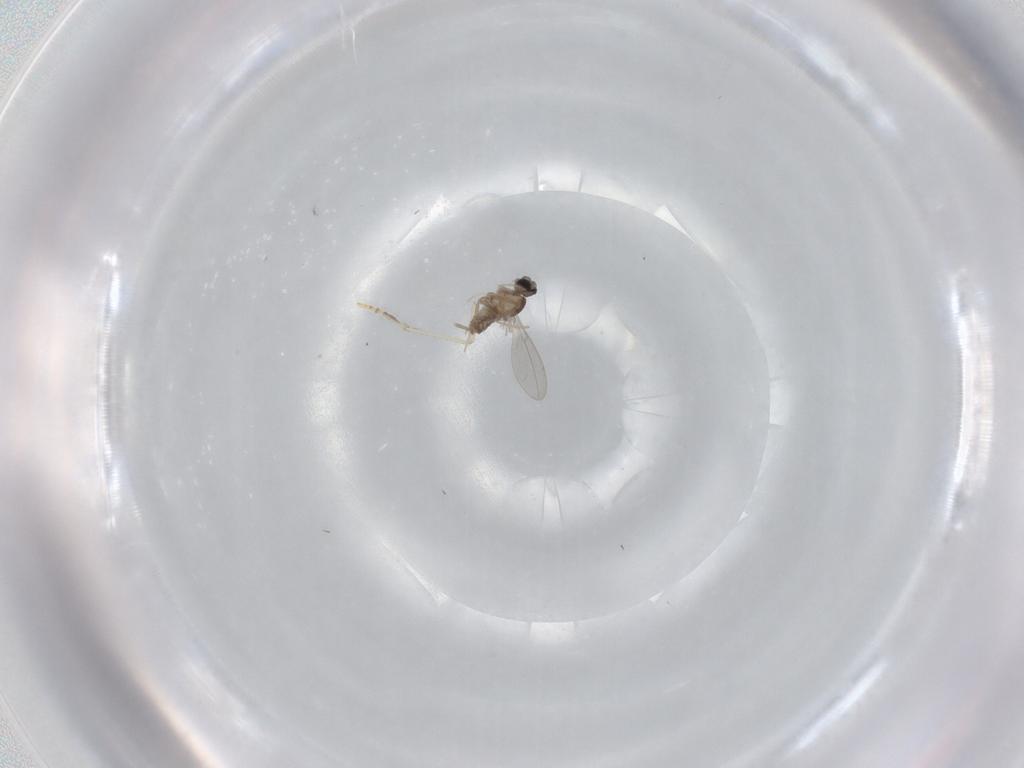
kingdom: Animalia
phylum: Arthropoda
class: Insecta
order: Diptera
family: Cecidomyiidae
